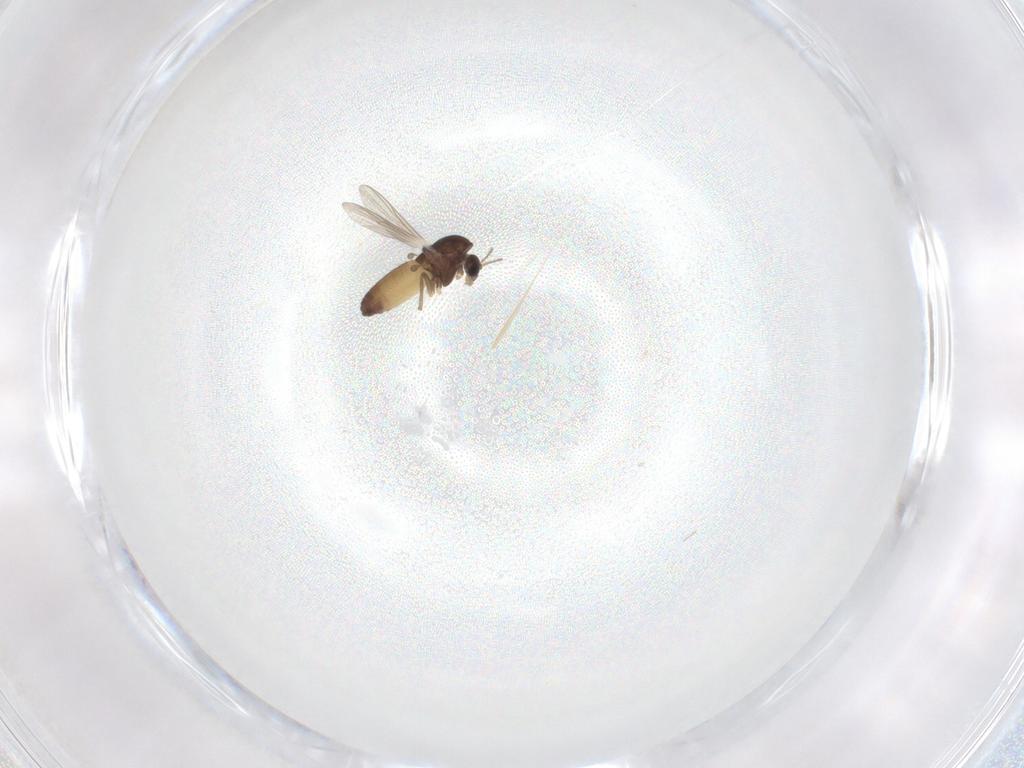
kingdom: Animalia
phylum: Arthropoda
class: Insecta
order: Diptera
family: Chironomidae
